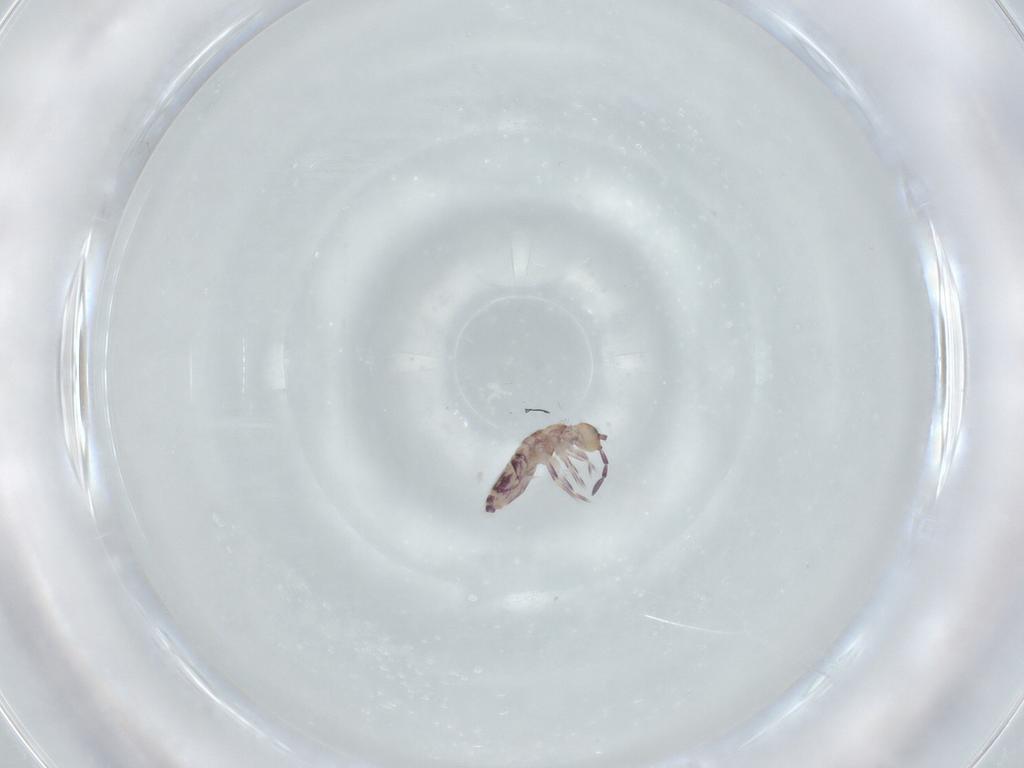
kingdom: Animalia
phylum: Arthropoda
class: Collembola
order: Entomobryomorpha
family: Entomobryidae
